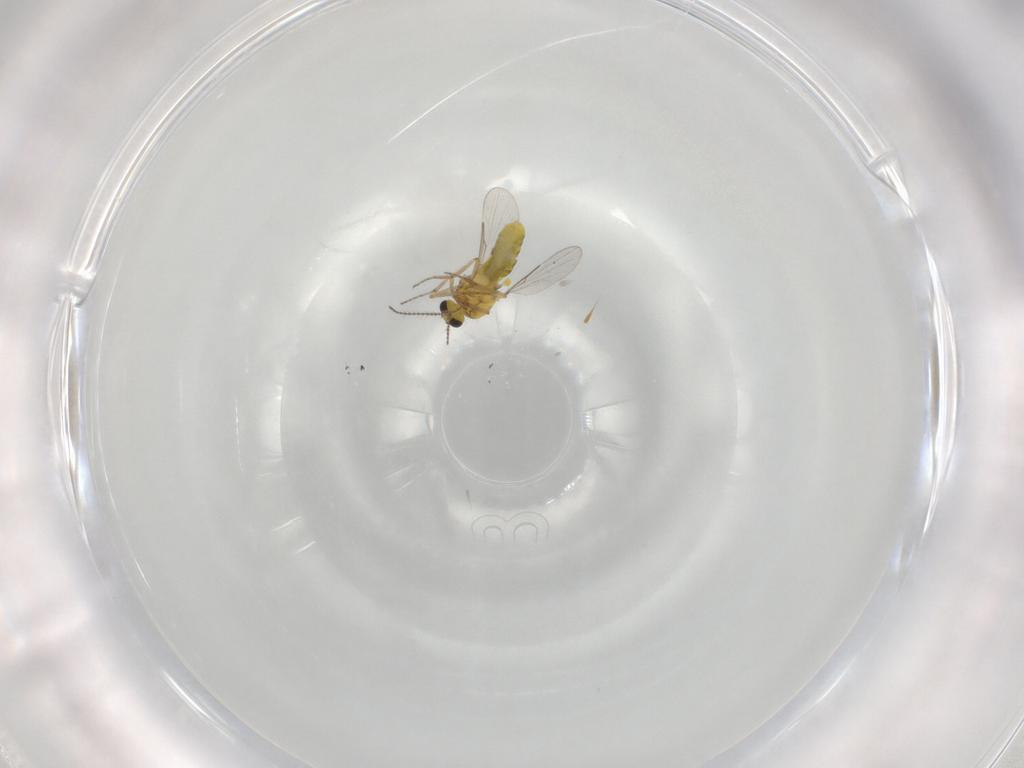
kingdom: Animalia
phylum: Arthropoda
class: Insecta
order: Diptera
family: Ceratopogonidae
